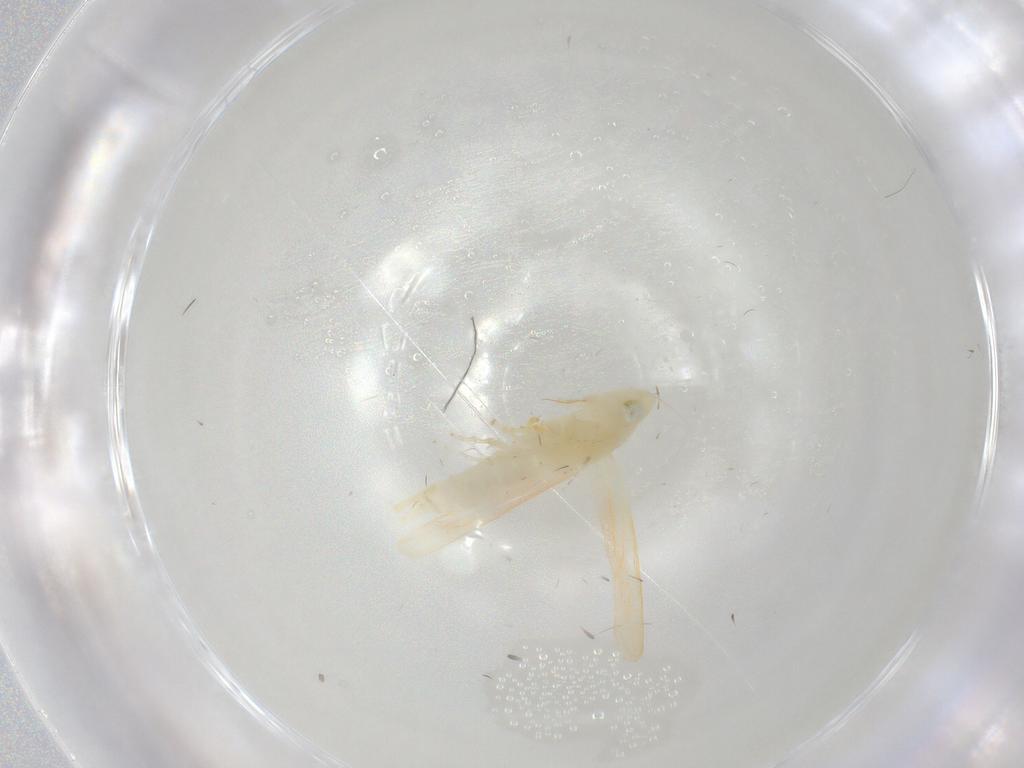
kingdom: Animalia
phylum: Arthropoda
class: Insecta
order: Hemiptera
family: Cicadellidae
